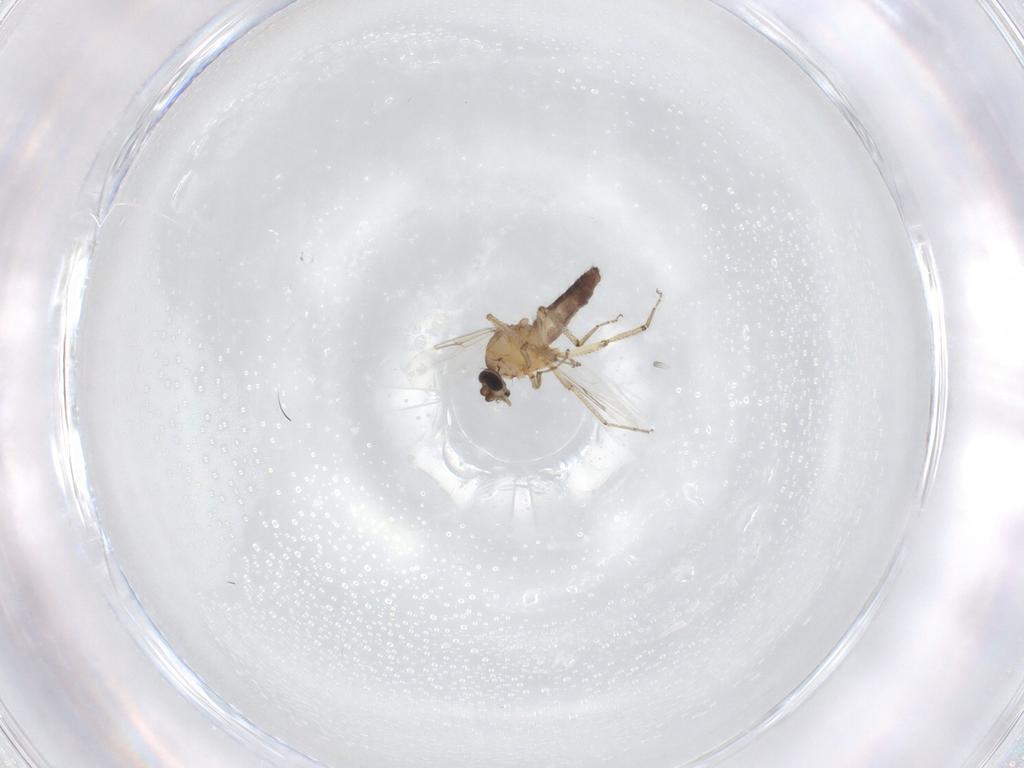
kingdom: Animalia
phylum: Arthropoda
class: Insecta
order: Diptera
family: Ceratopogonidae
